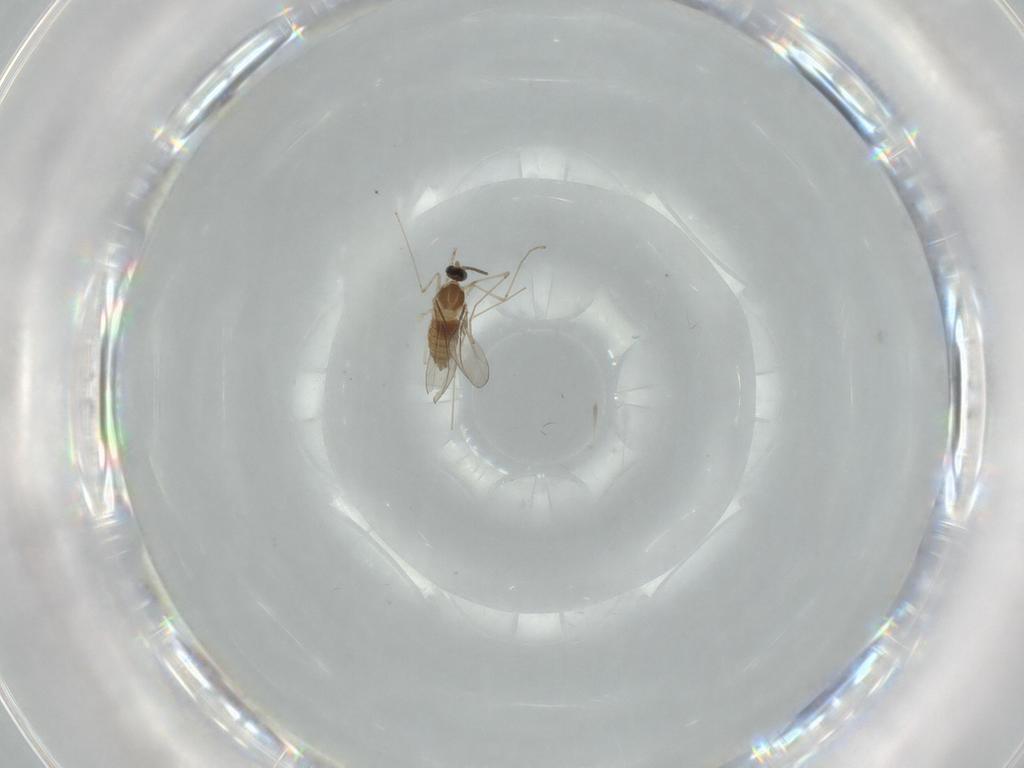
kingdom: Animalia
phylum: Arthropoda
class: Insecta
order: Diptera
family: Cecidomyiidae
